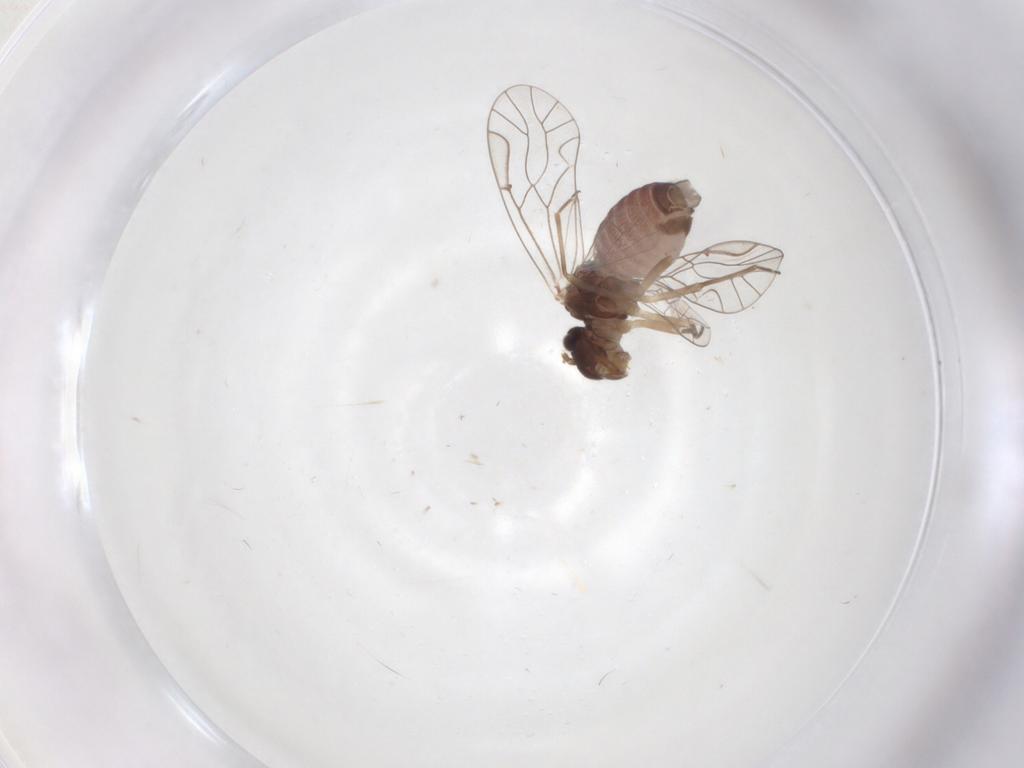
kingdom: Animalia
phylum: Arthropoda
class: Insecta
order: Psocodea
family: Lachesillidae
